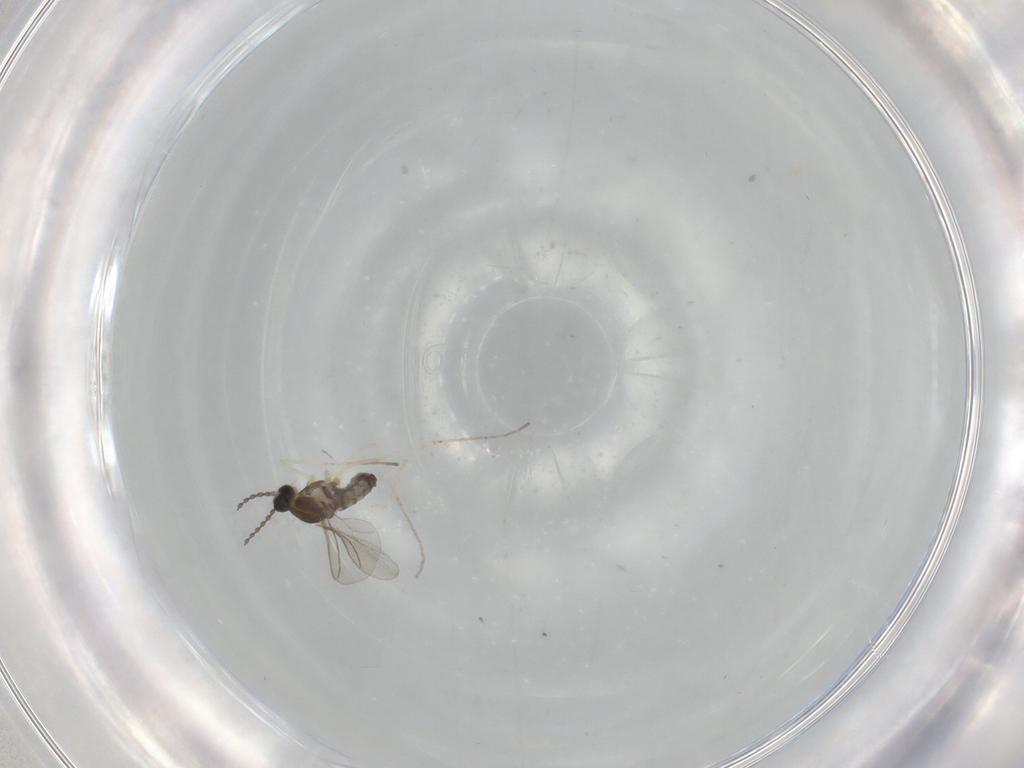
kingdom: Animalia
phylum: Arthropoda
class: Insecta
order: Diptera
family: Cecidomyiidae
